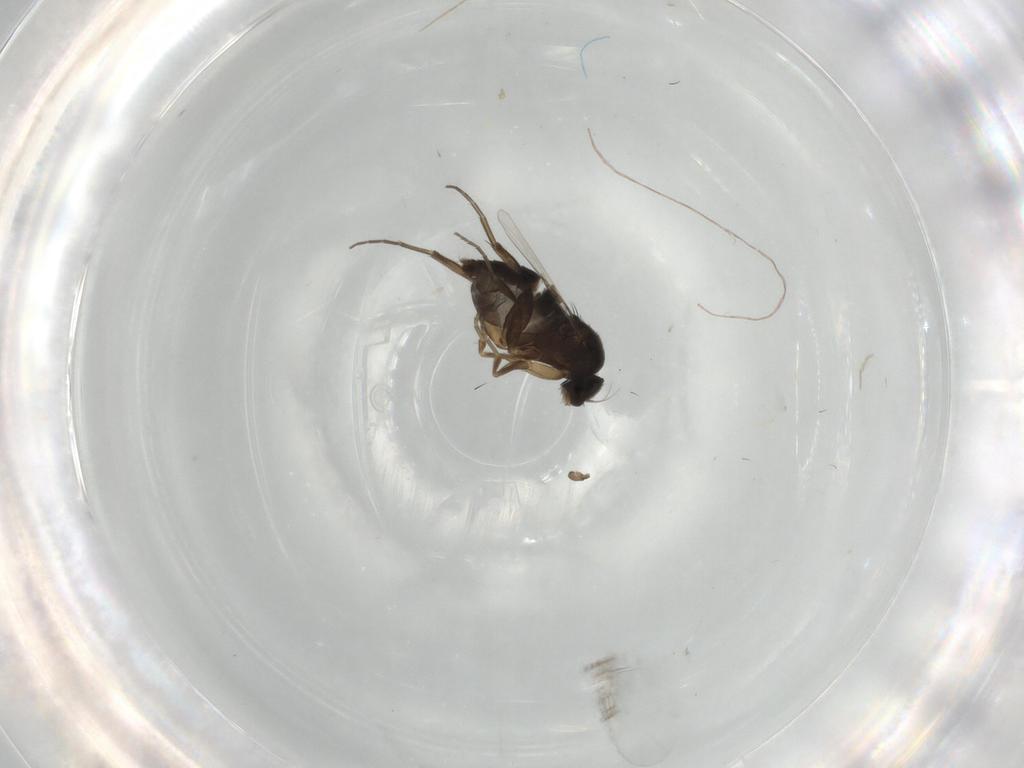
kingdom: Animalia
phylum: Arthropoda
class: Insecta
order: Diptera
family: Phoridae
